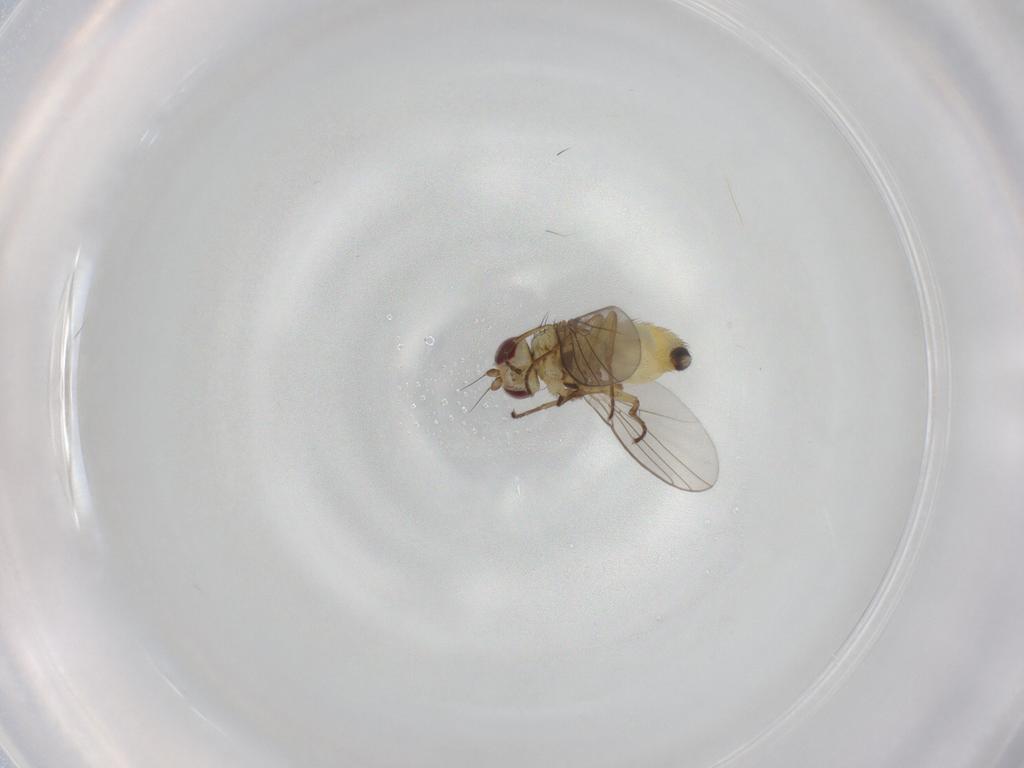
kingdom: Animalia
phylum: Arthropoda
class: Insecta
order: Diptera
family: Agromyzidae
